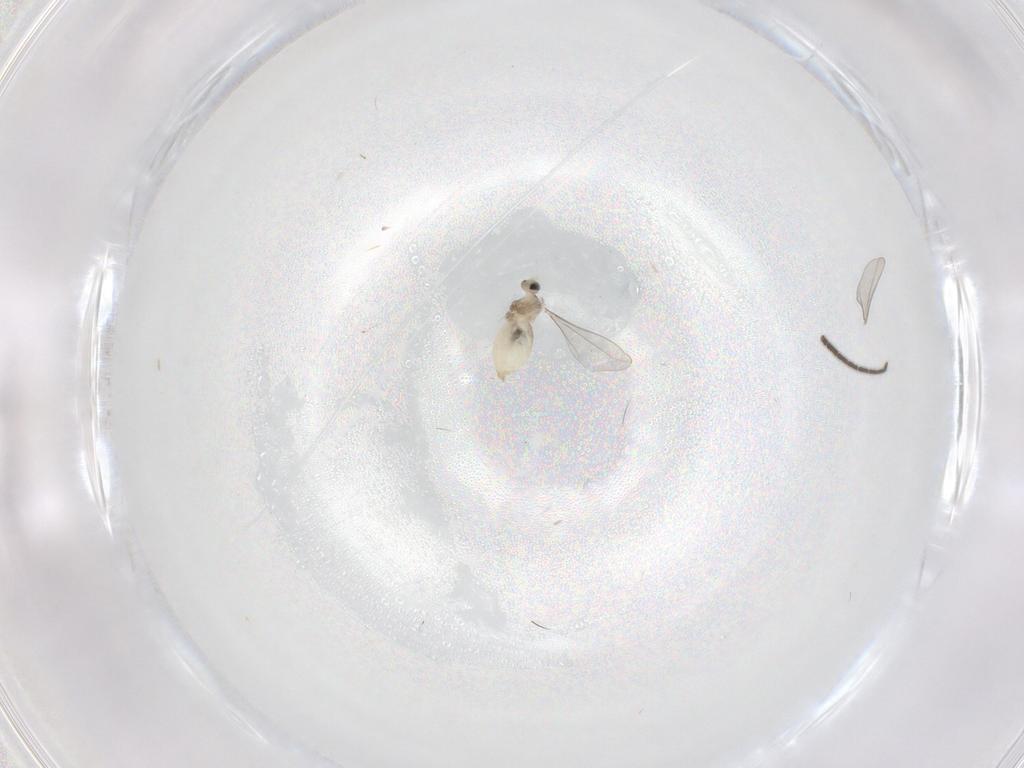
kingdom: Animalia
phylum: Arthropoda
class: Insecta
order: Diptera
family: Cecidomyiidae
